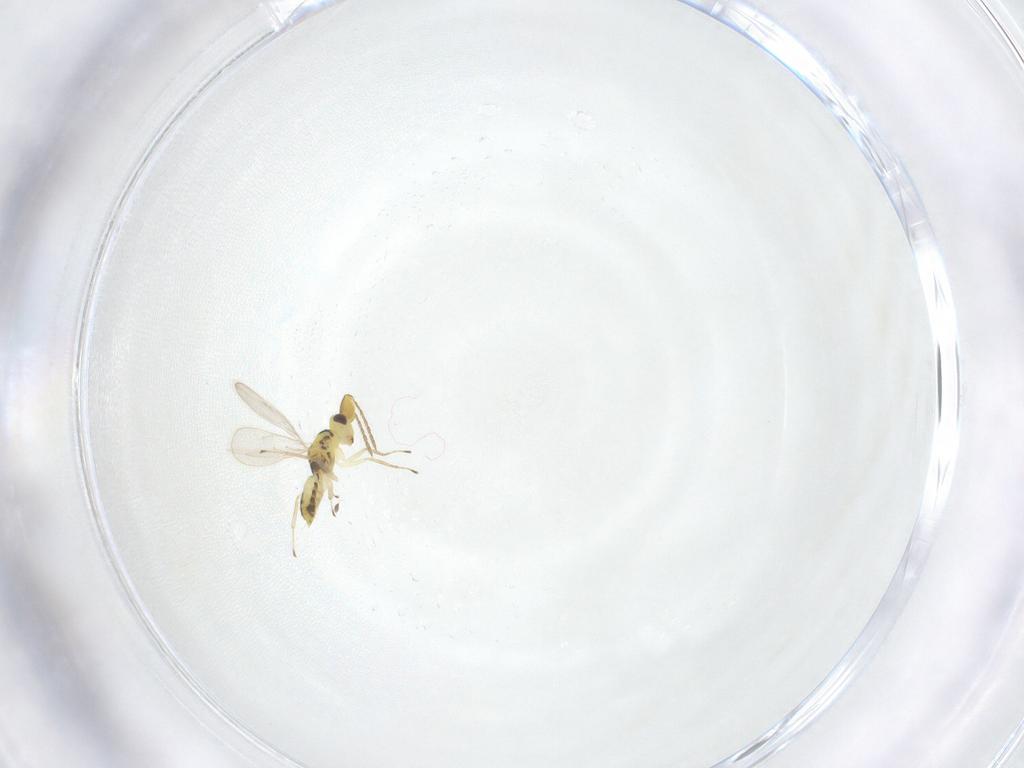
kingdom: Animalia
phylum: Arthropoda
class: Insecta
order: Hymenoptera
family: Eulophidae
